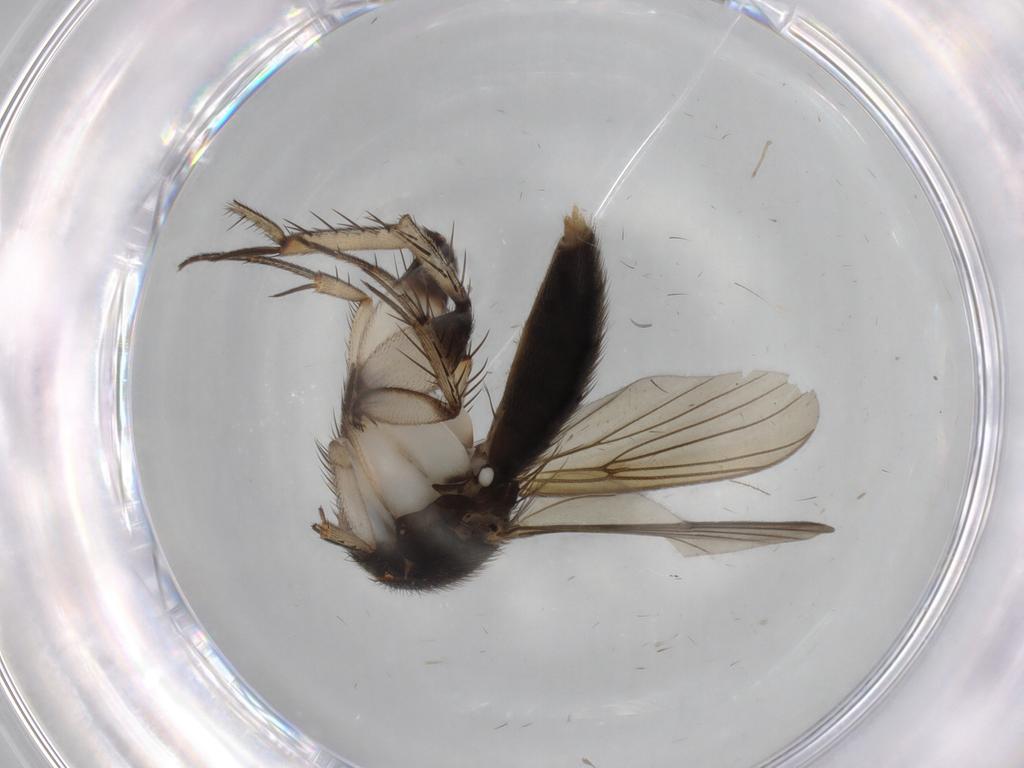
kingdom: Animalia
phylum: Arthropoda
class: Insecta
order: Diptera
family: Mycetophilidae
